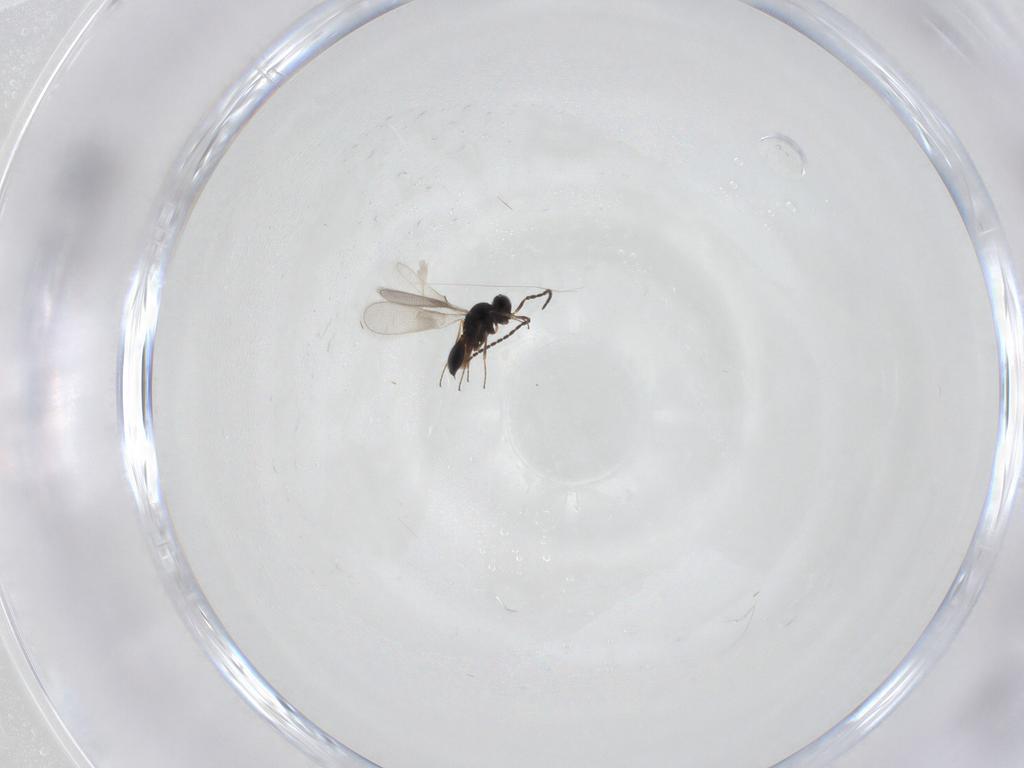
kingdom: Animalia
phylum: Arthropoda
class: Insecta
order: Hymenoptera
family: Scelionidae
